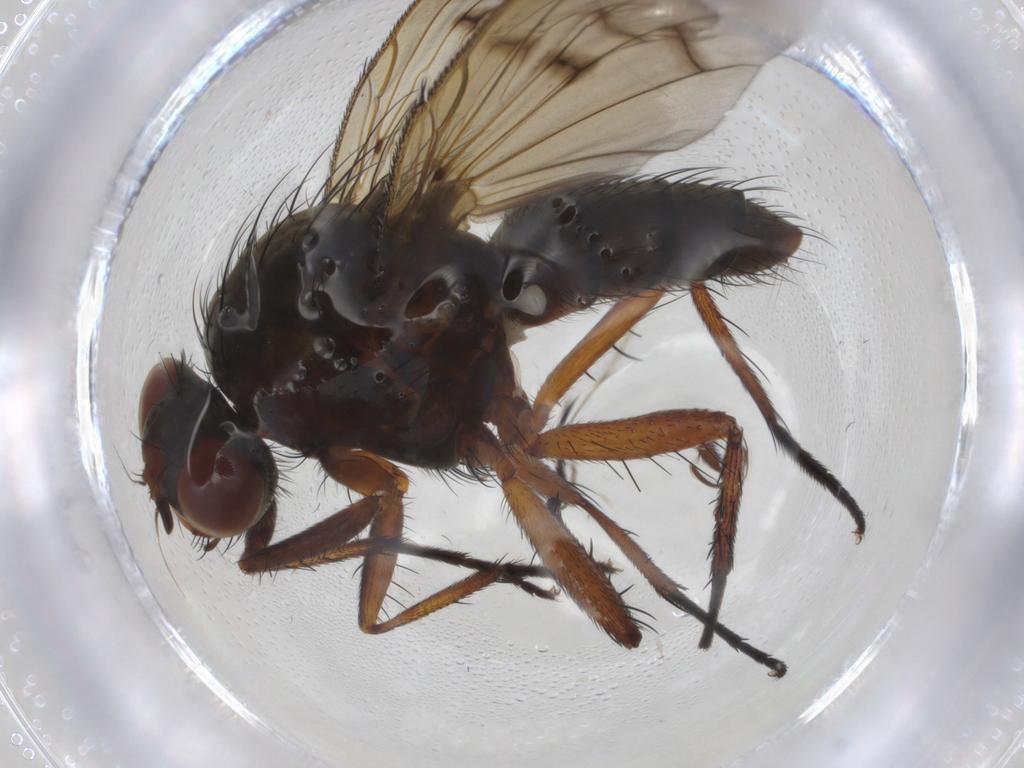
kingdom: Animalia
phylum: Arthropoda
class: Insecta
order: Diptera
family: Anthomyiidae
